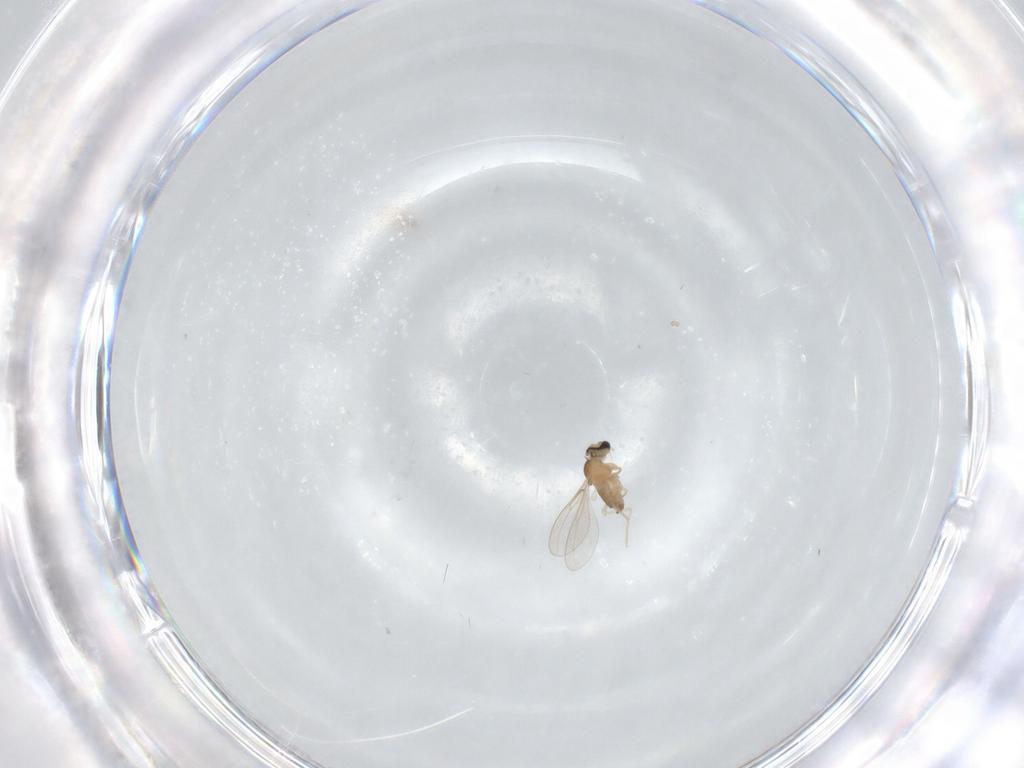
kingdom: Animalia
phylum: Arthropoda
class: Insecta
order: Diptera
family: Cecidomyiidae
